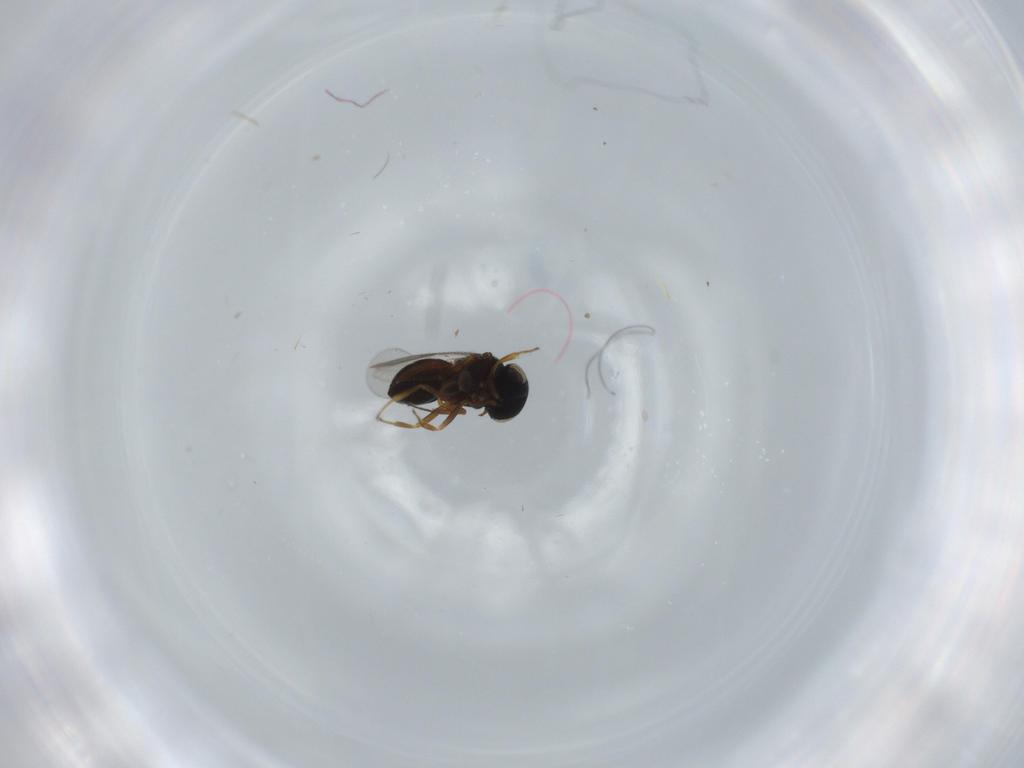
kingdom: Animalia
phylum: Arthropoda
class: Insecta
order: Hymenoptera
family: Scelionidae
